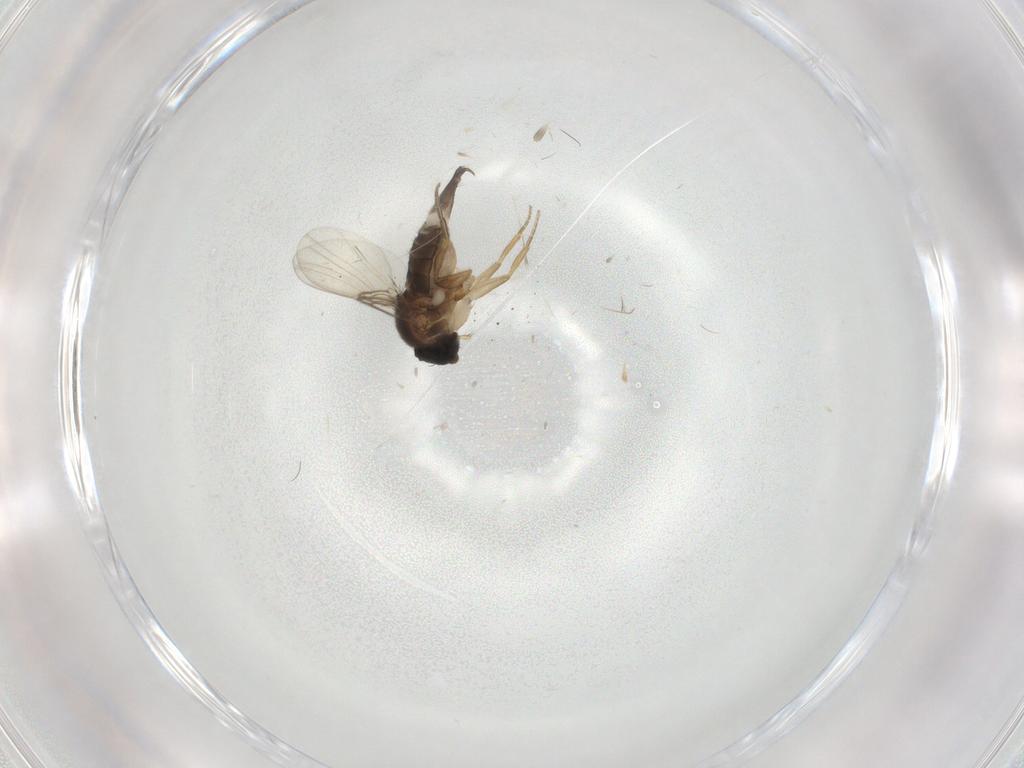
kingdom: Animalia
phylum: Arthropoda
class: Insecta
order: Diptera
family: Phoridae
